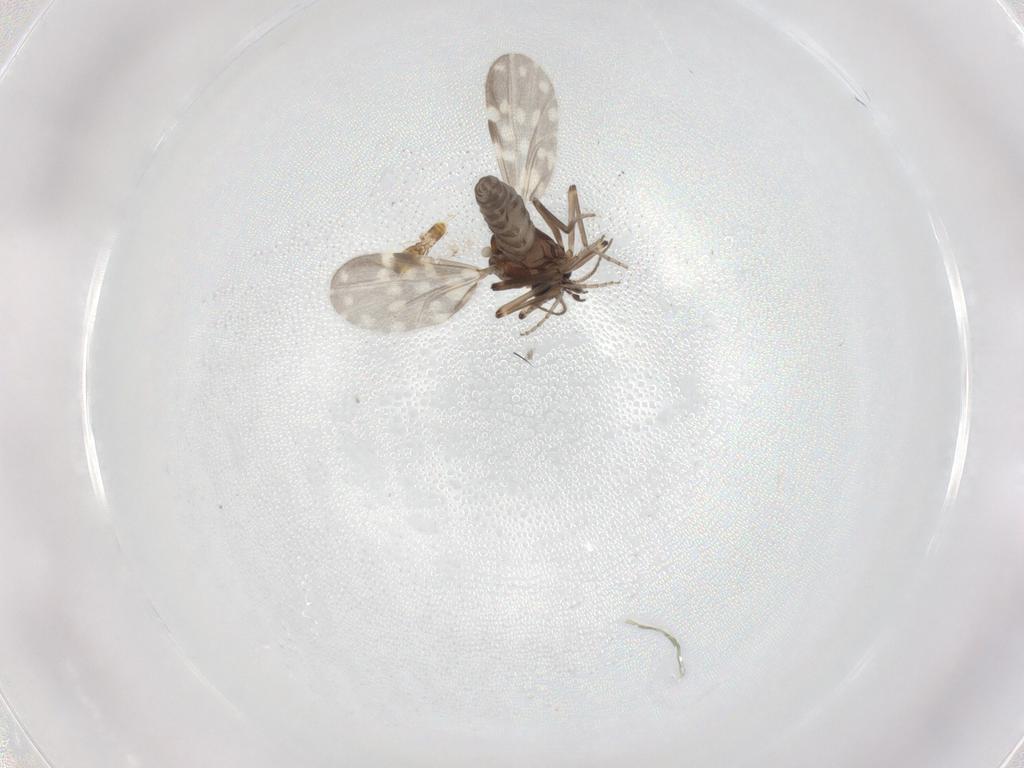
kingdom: Animalia
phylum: Arthropoda
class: Insecta
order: Diptera
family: Ceratopogonidae
